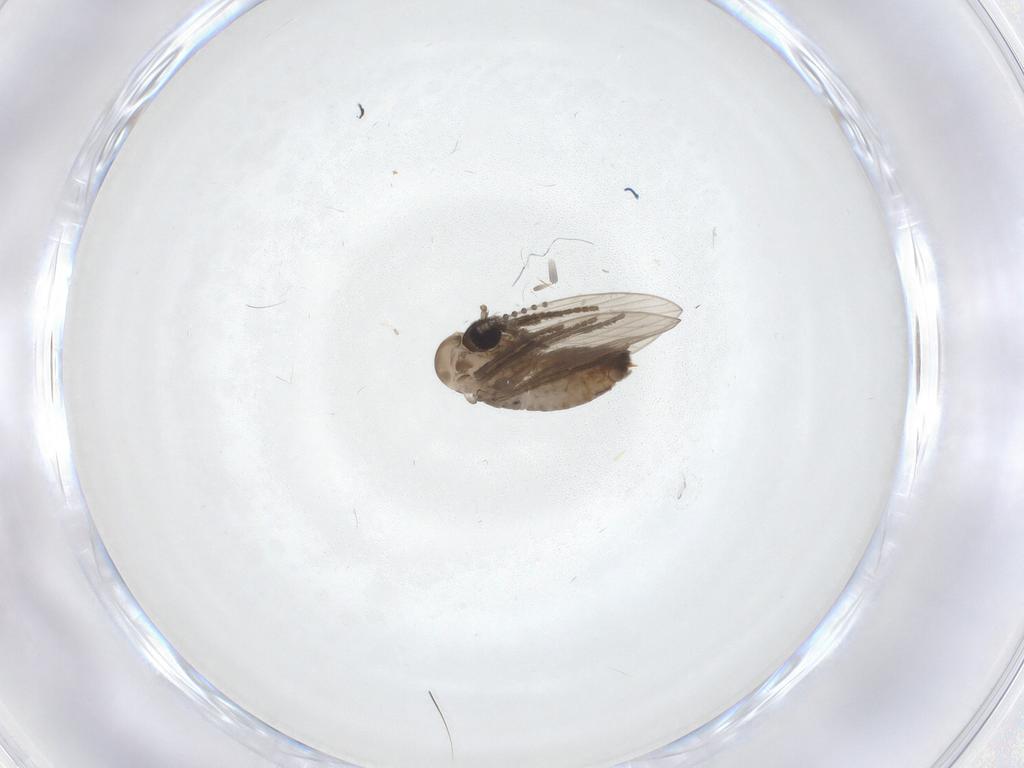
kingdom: Animalia
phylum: Arthropoda
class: Insecta
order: Diptera
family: Psychodidae
